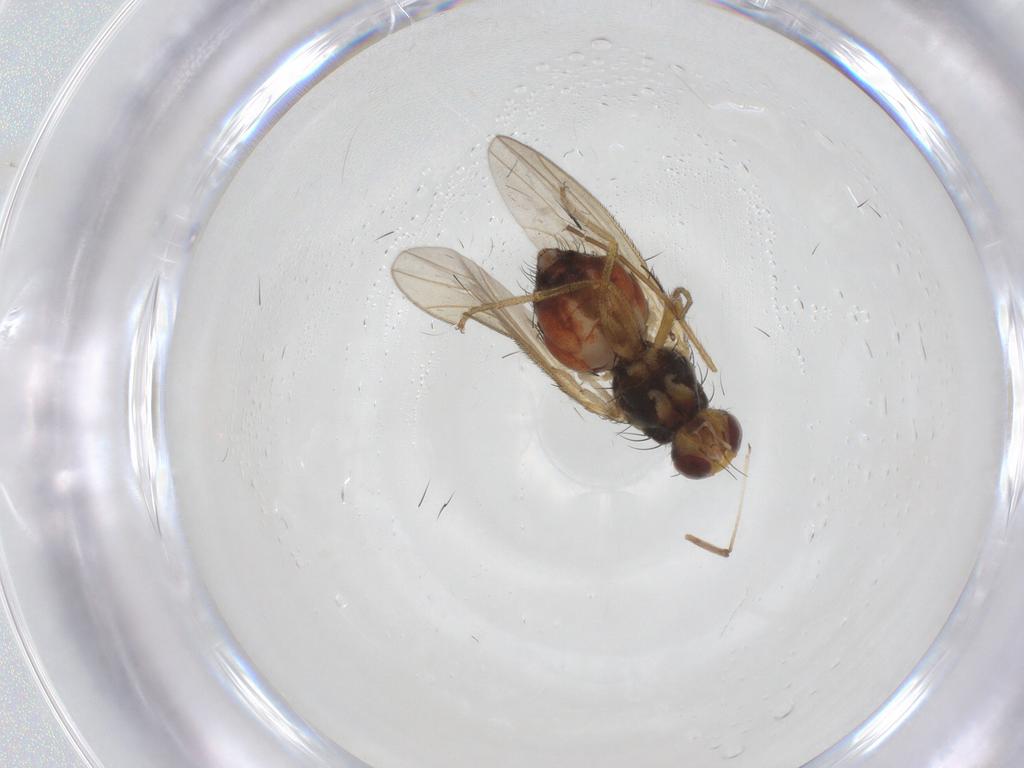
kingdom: Animalia
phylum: Arthropoda
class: Insecta
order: Diptera
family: Heleomyzidae
